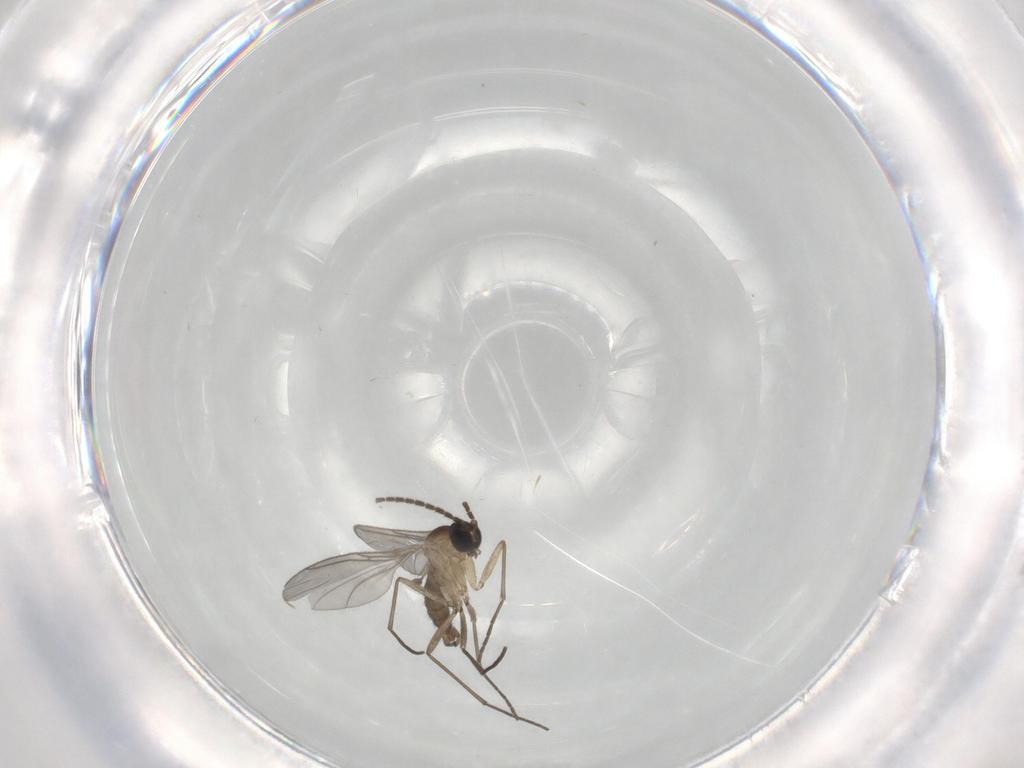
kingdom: Animalia
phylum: Arthropoda
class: Insecta
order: Diptera
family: Sciaridae
